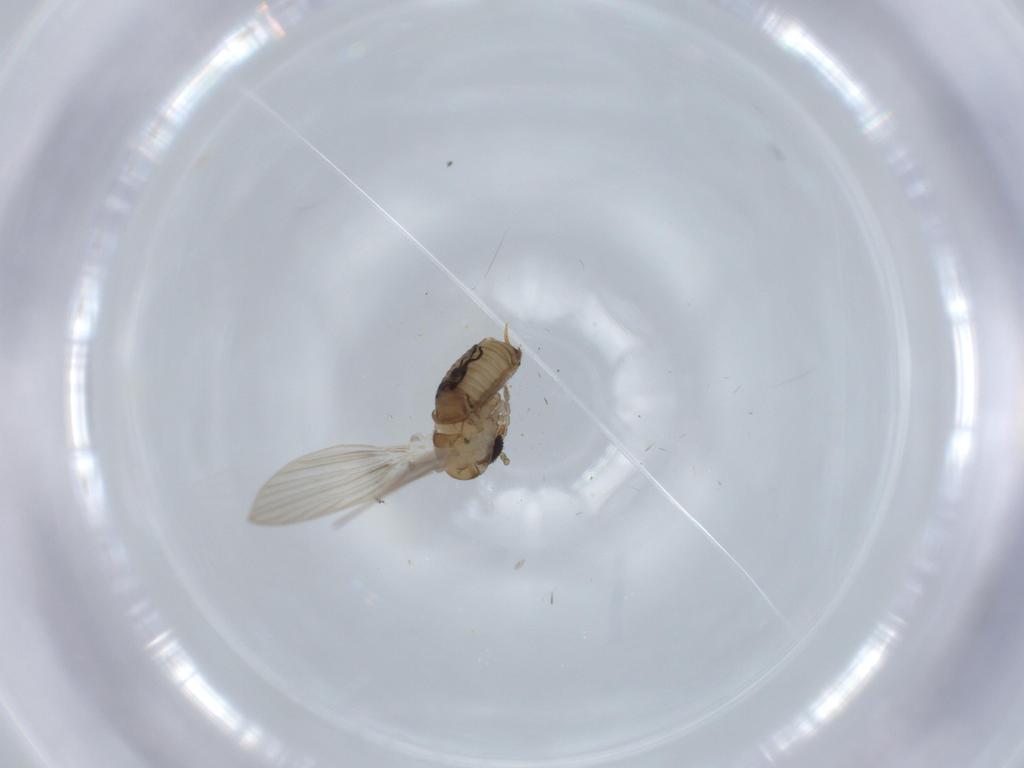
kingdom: Animalia
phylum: Arthropoda
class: Insecta
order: Diptera
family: Psychodidae
